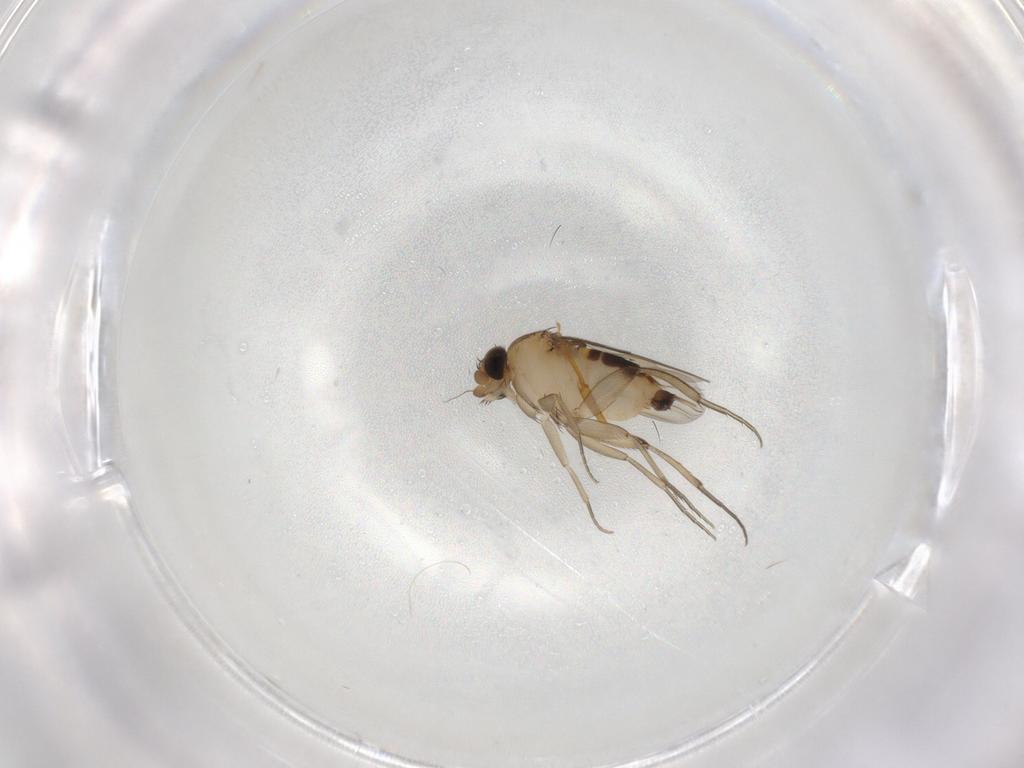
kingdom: Animalia
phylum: Arthropoda
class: Insecta
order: Diptera
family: Phoridae
